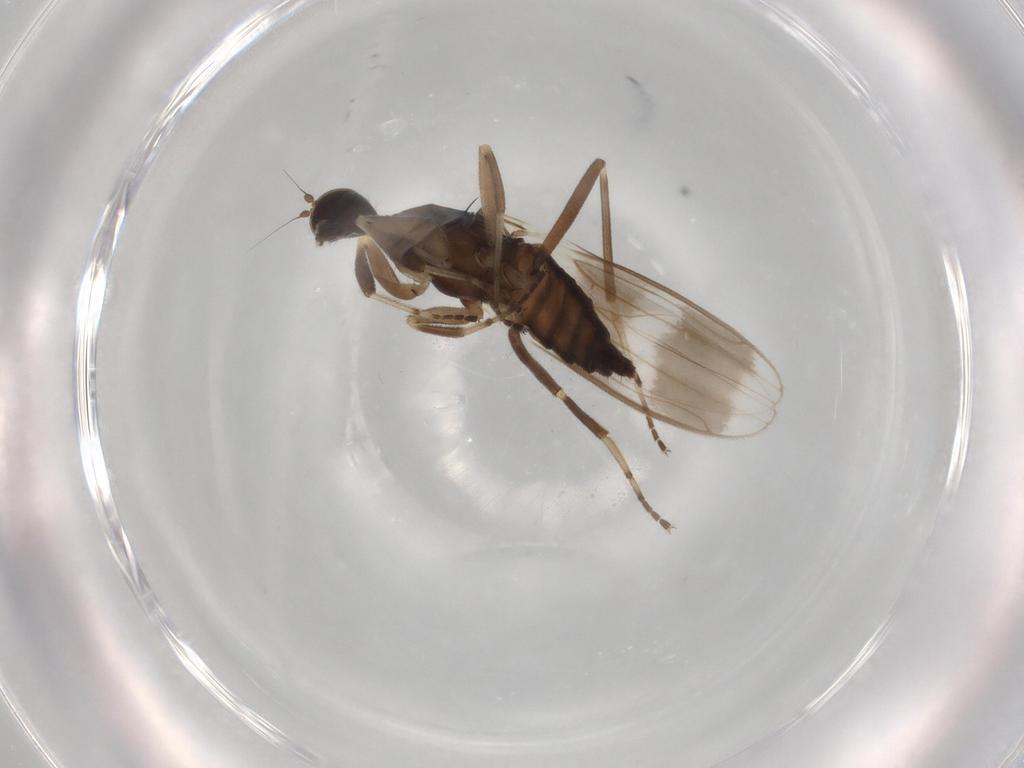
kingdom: Animalia
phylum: Arthropoda
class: Insecta
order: Diptera
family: Hybotidae
